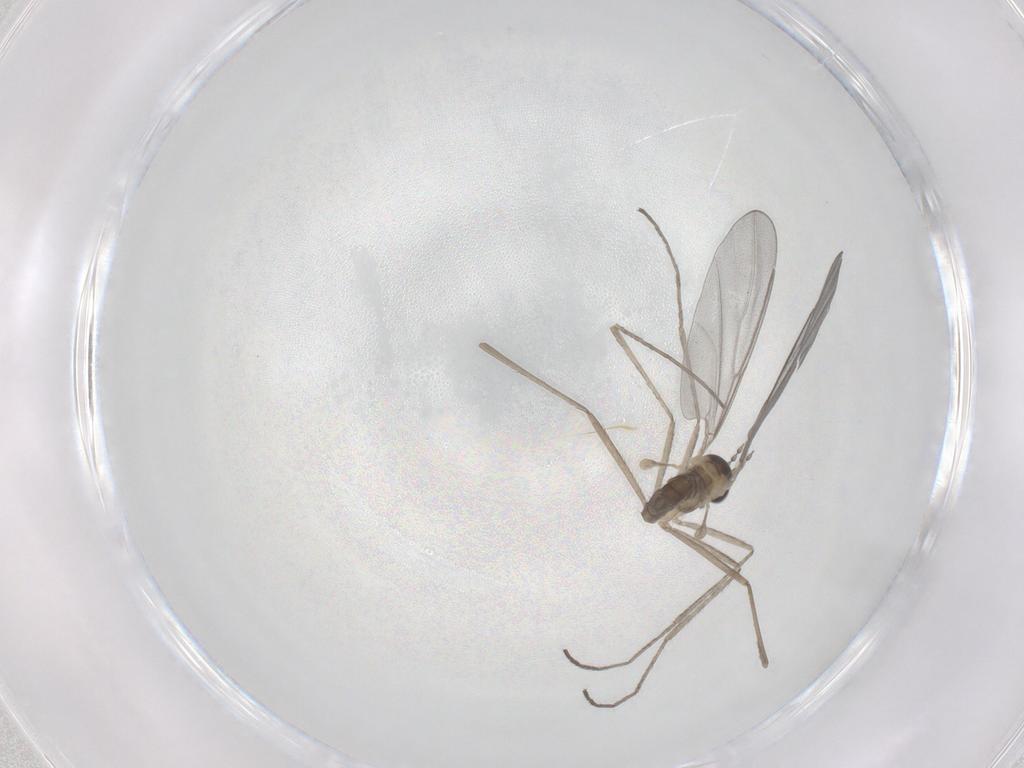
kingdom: Animalia
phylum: Arthropoda
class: Insecta
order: Diptera
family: Cecidomyiidae
